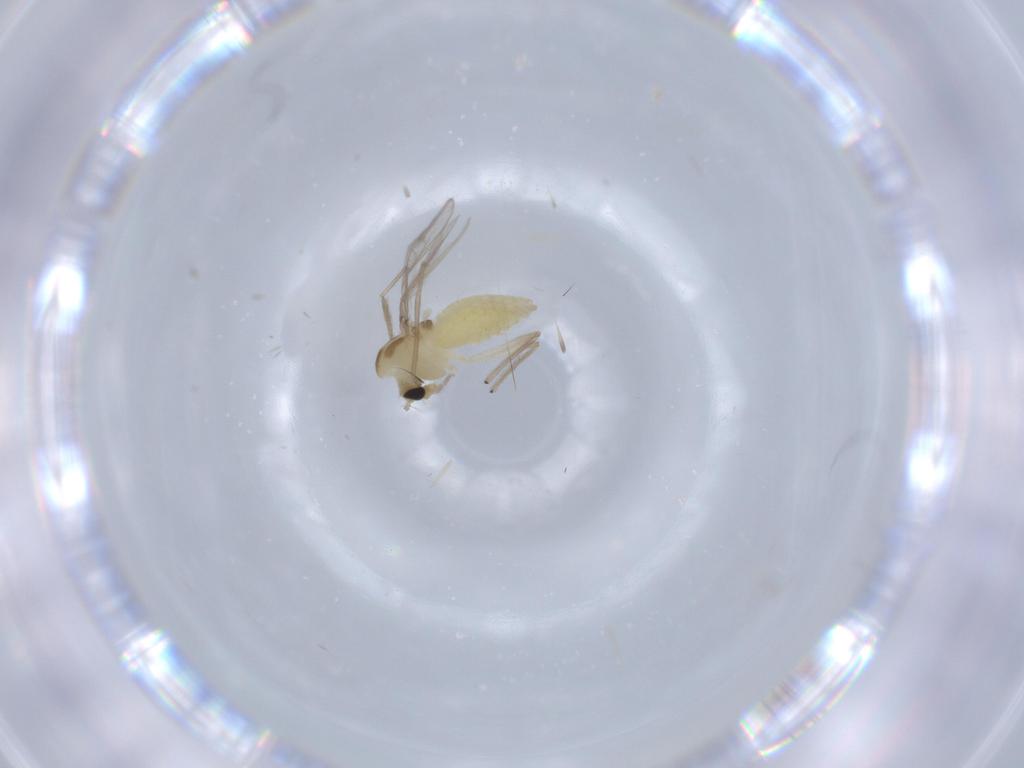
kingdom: Animalia
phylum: Arthropoda
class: Insecta
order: Diptera
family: Chironomidae
